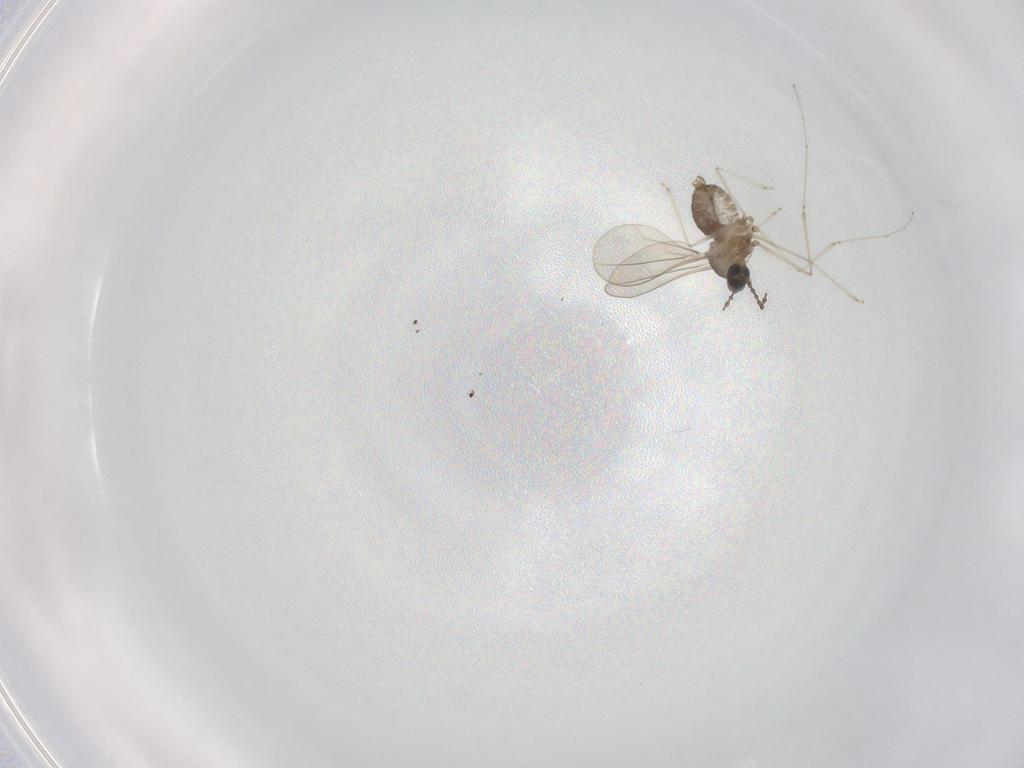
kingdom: Animalia
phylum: Arthropoda
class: Insecta
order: Diptera
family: Cecidomyiidae
